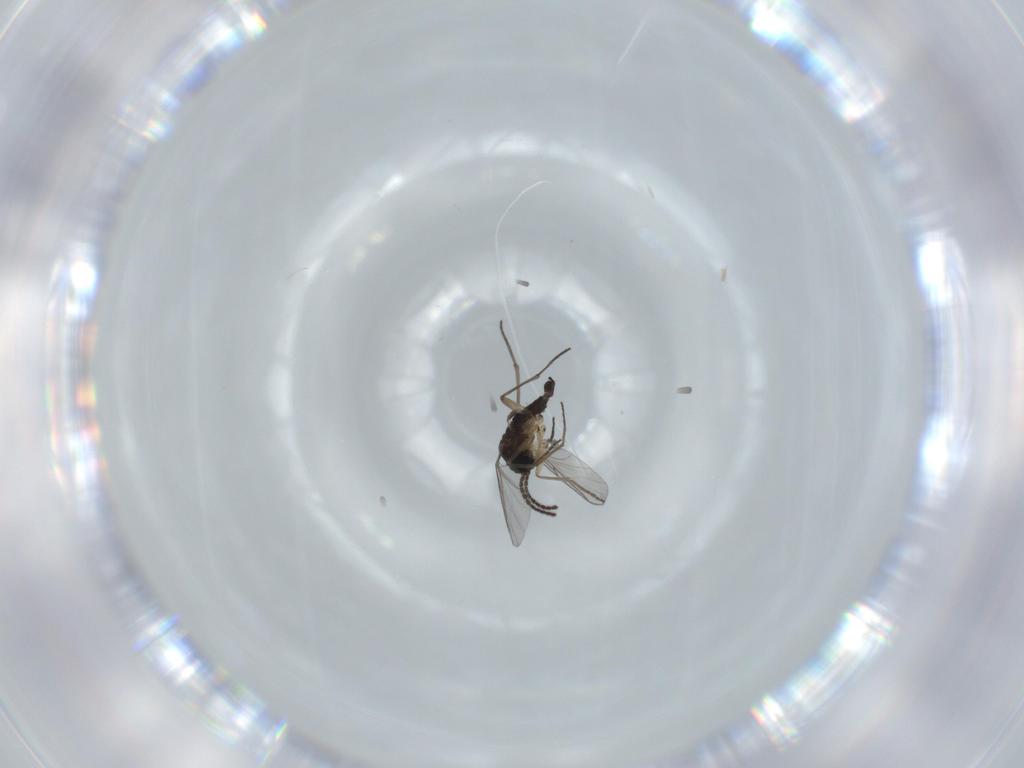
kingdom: Animalia
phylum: Arthropoda
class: Insecta
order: Diptera
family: Sciaridae
